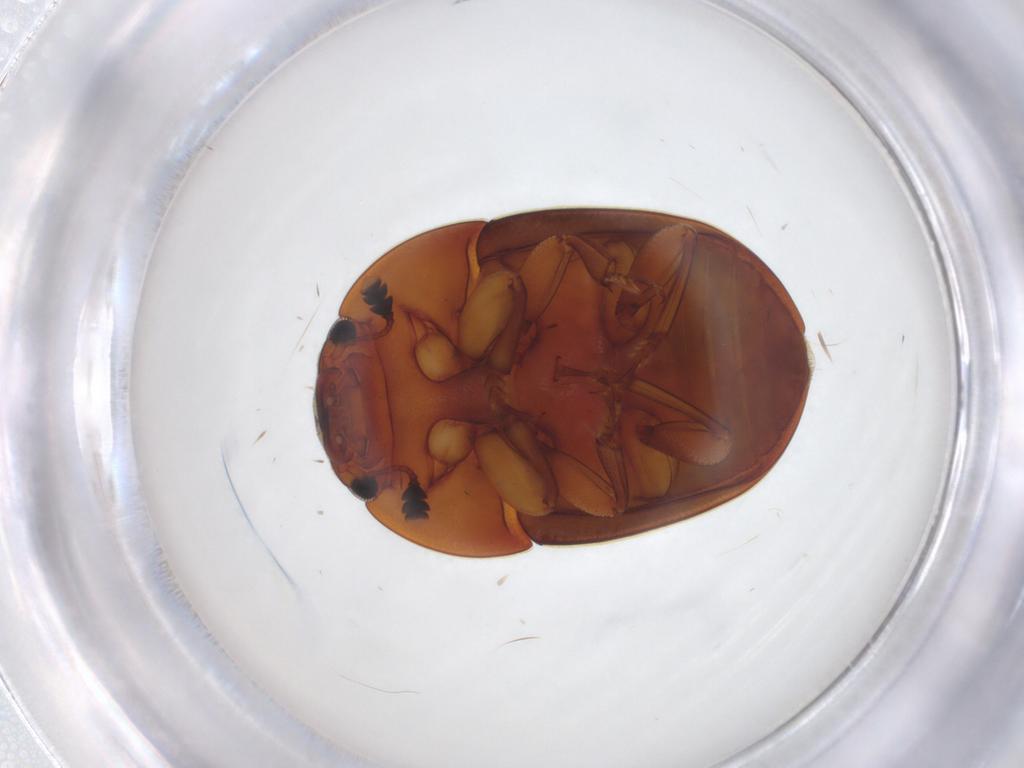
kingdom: Animalia
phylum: Arthropoda
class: Insecta
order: Coleoptera
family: Nitidulidae
